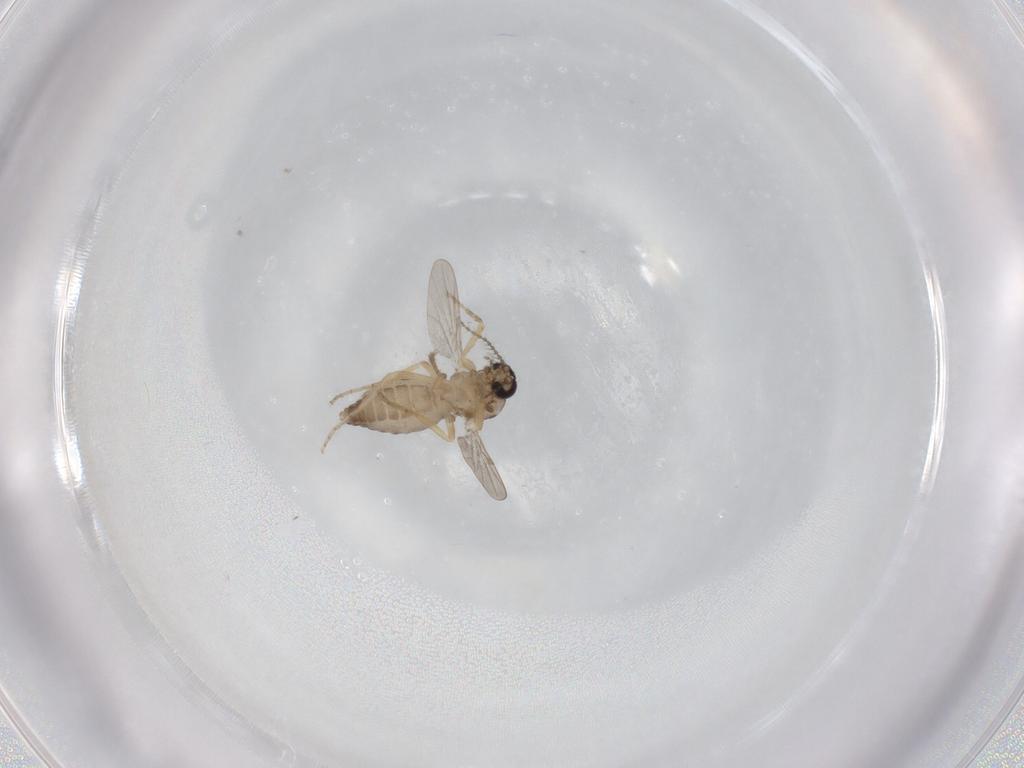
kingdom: Animalia
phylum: Arthropoda
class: Insecta
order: Diptera
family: Ceratopogonidae
